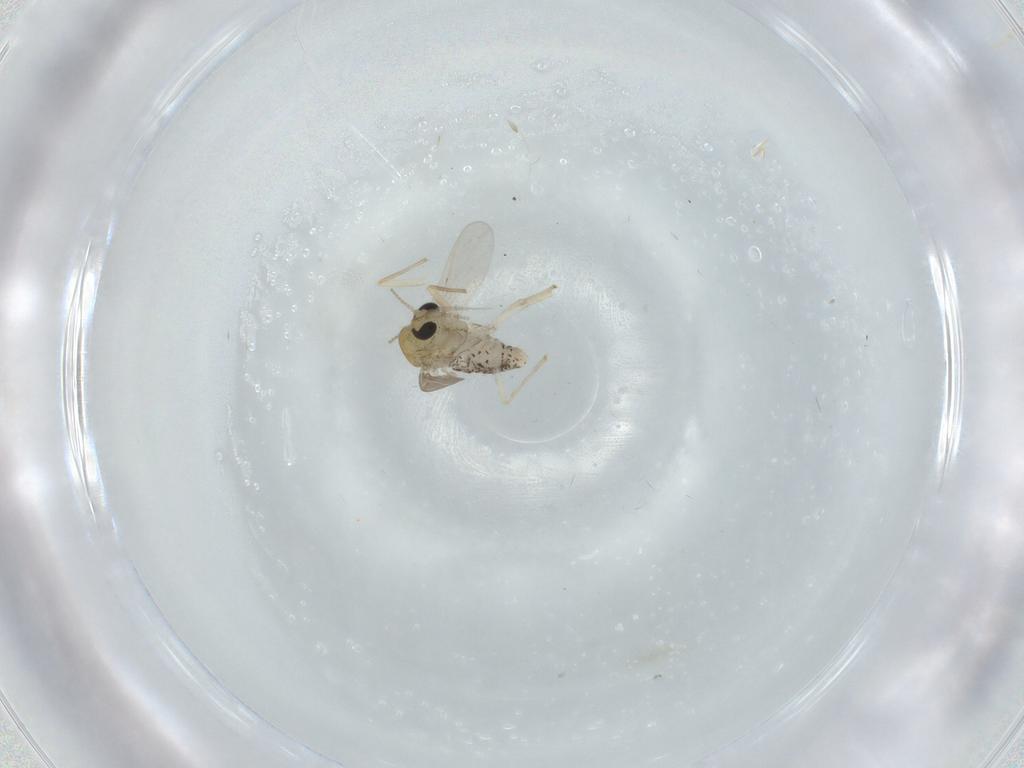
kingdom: Animalia
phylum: Arthropoda
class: Insecta
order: Diptera
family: Chironomidae
